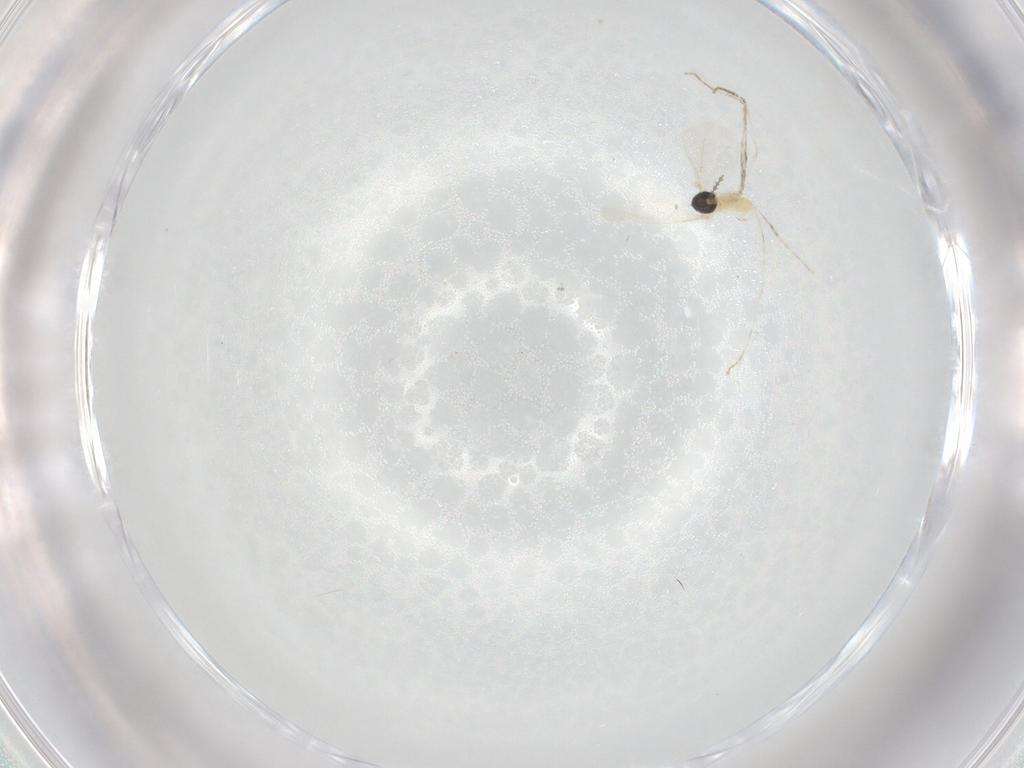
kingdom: Animalia
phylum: Arthropoda
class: Insecta
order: Diptera
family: Cecidomyiidae
